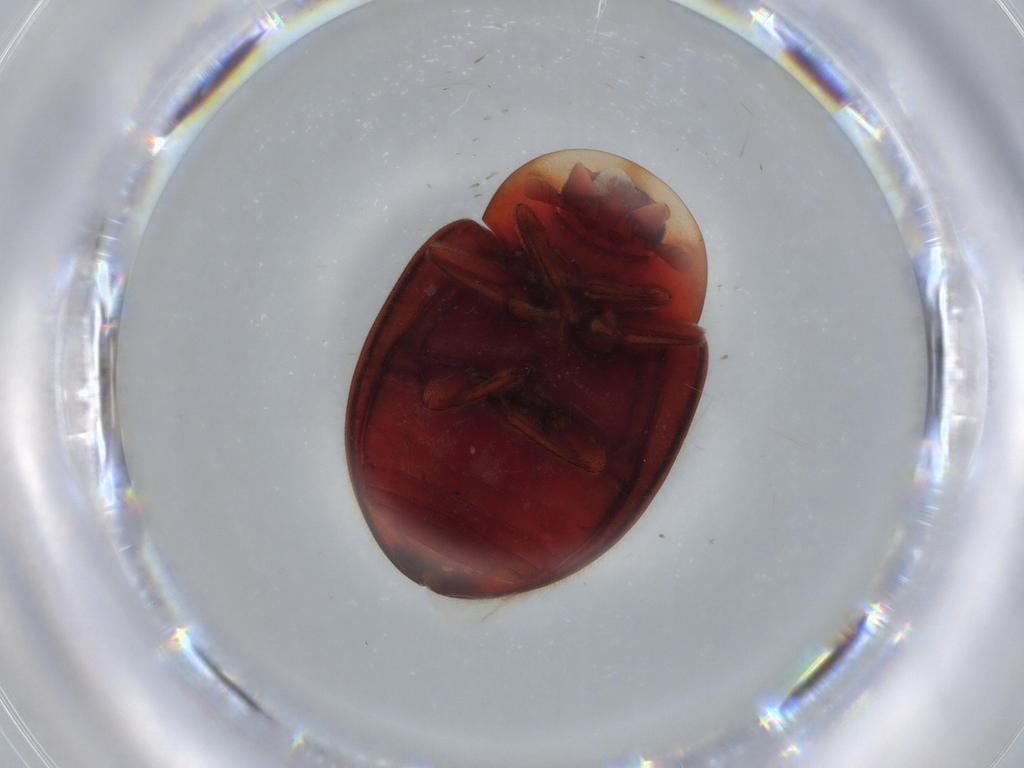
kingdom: Animalia
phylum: Arthropoda
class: Insecta
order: Coleoptera
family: Coccinellidae
